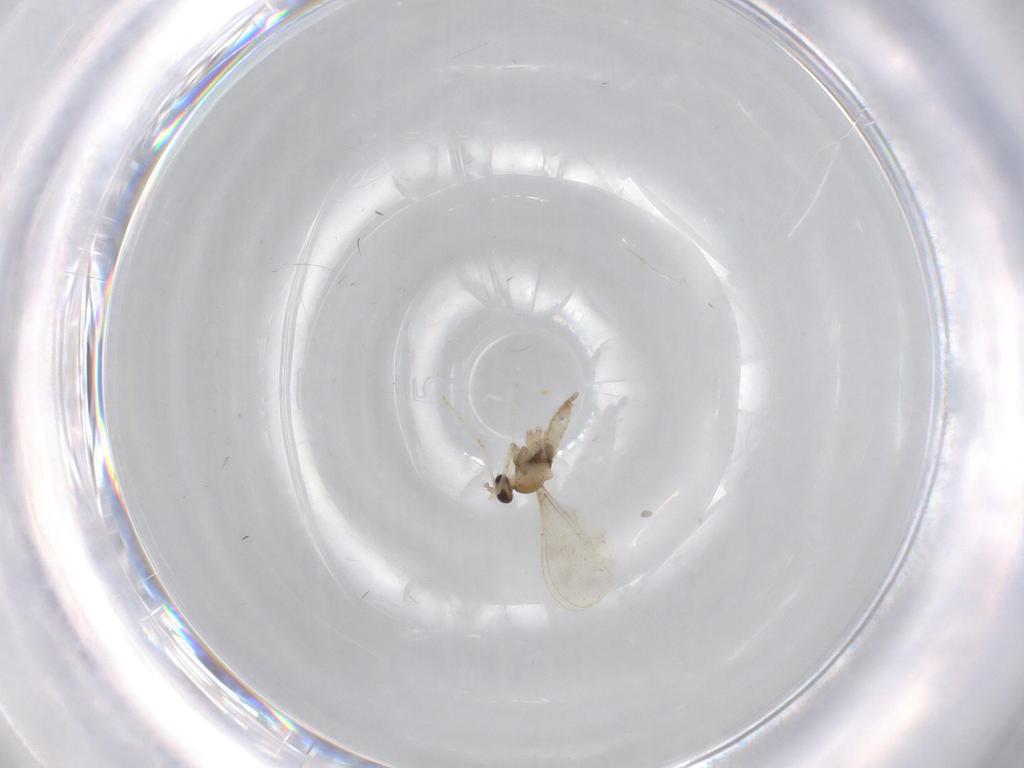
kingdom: Animalia
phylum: Arthropoda
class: Insecta
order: Diptera
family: Cecidomyiidae
